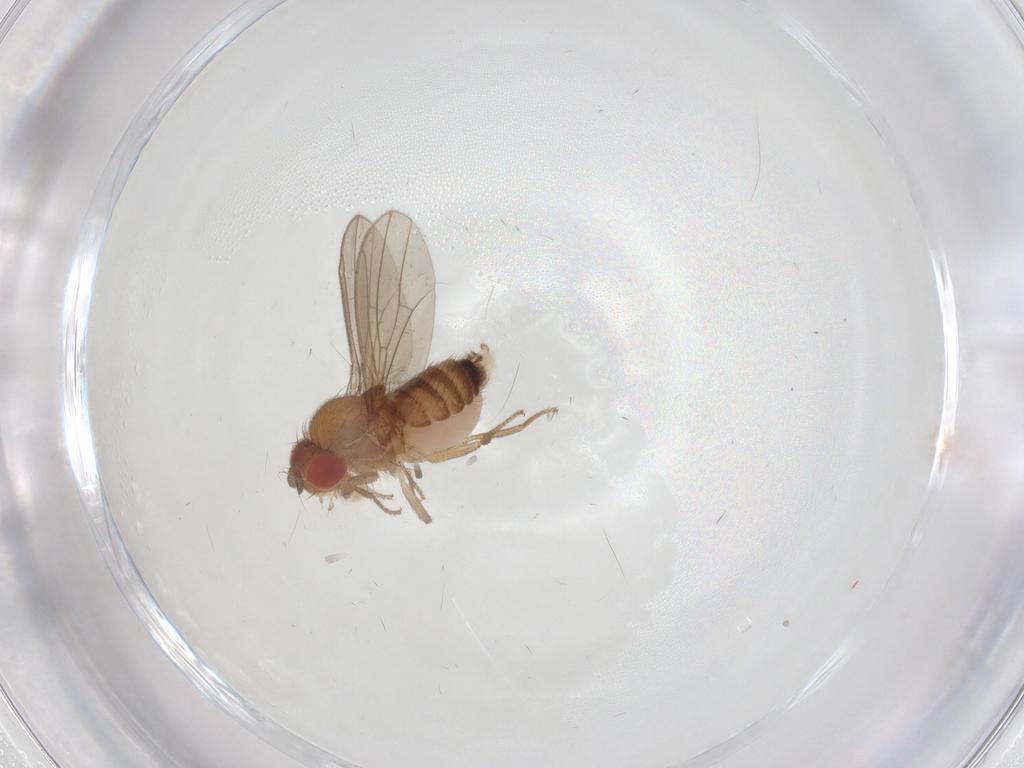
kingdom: Animalia
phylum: Arthropoda
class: Insecta
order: Diptera
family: Drosophilidae
